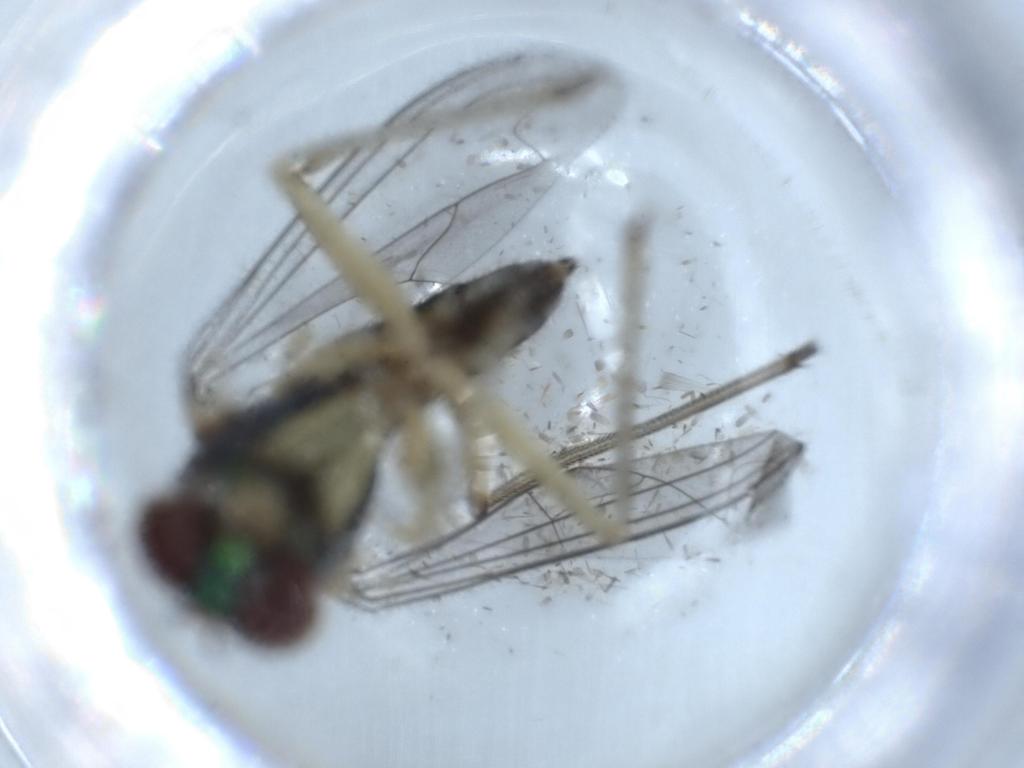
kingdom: Animalia
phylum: Arthropoda
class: Insecta
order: Diptera
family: Dolichopodidae
